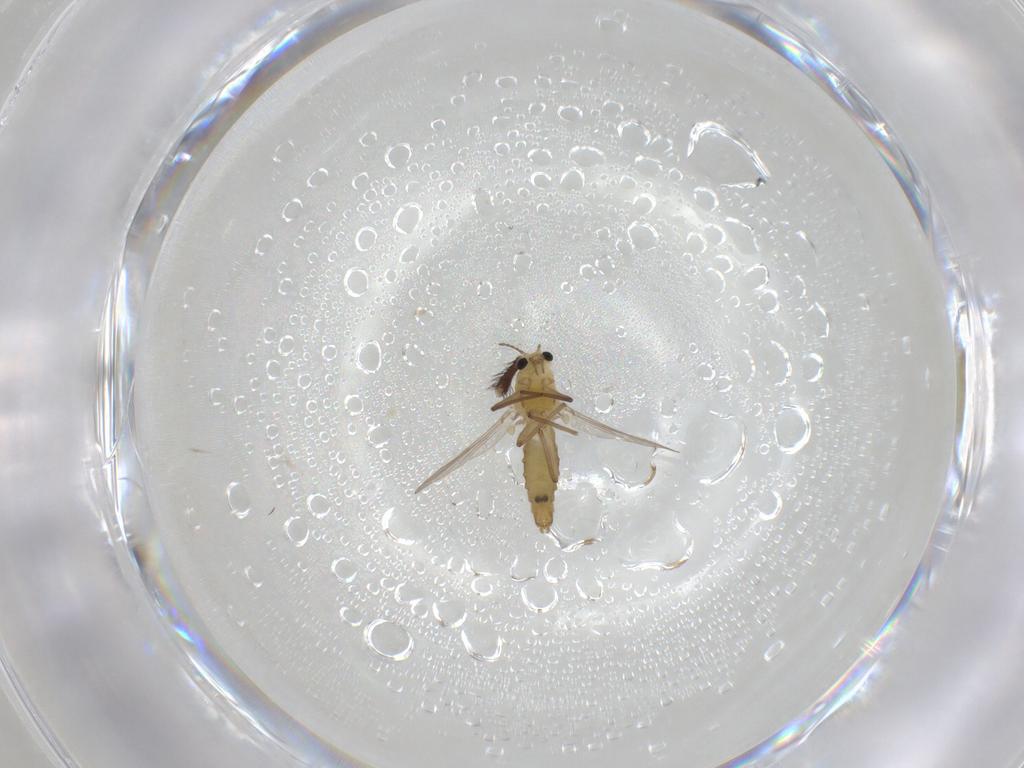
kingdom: Animalia
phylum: Arthropoda
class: Insecta
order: Diptera
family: Chironomidae
